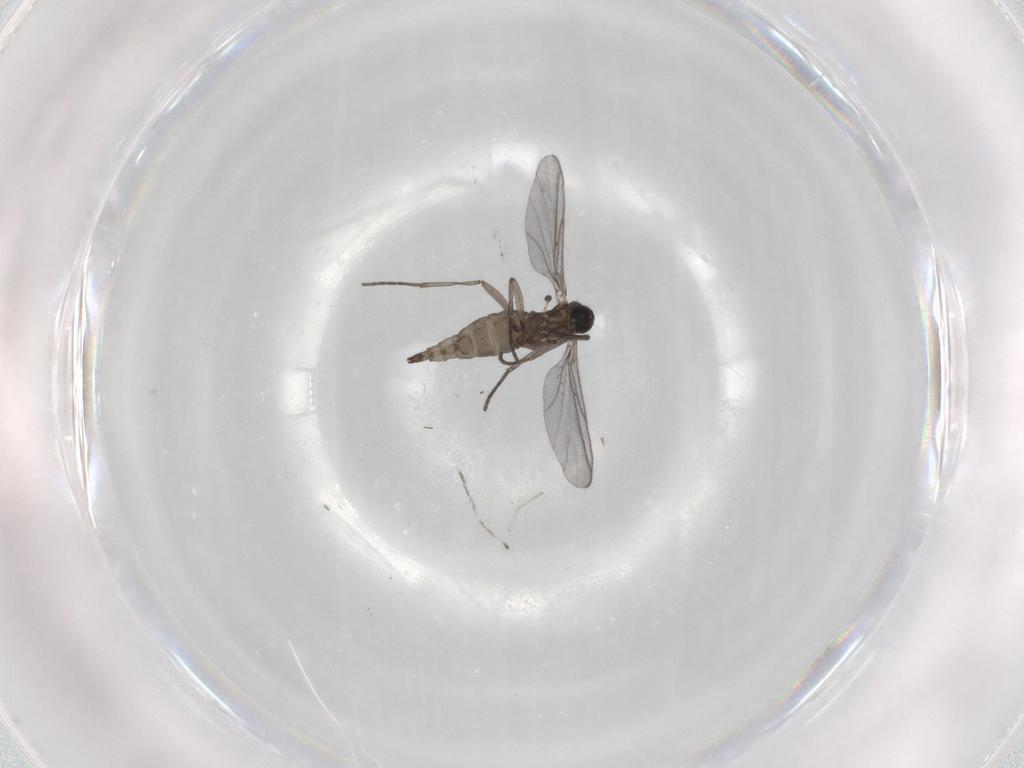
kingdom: Animalia
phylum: Arthropoda
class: Insecta
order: Diptera
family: Cecidomyiidae
